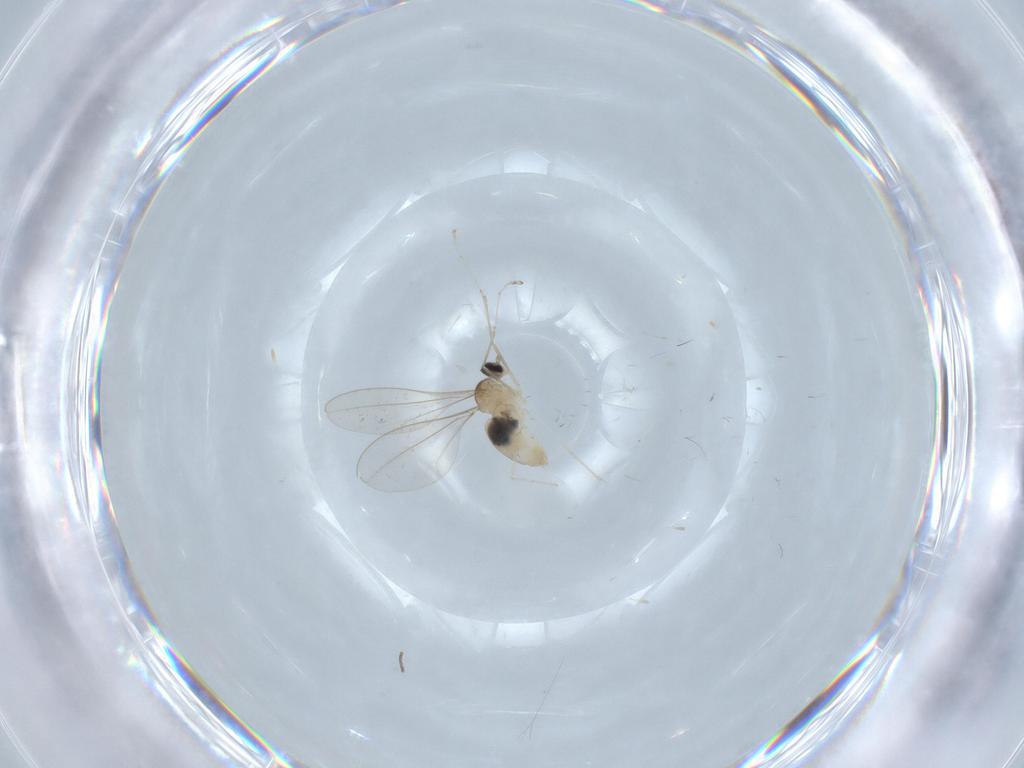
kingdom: Animalia
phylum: Arthropoda
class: Insecta
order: Diptera
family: Cecidomyiidae
